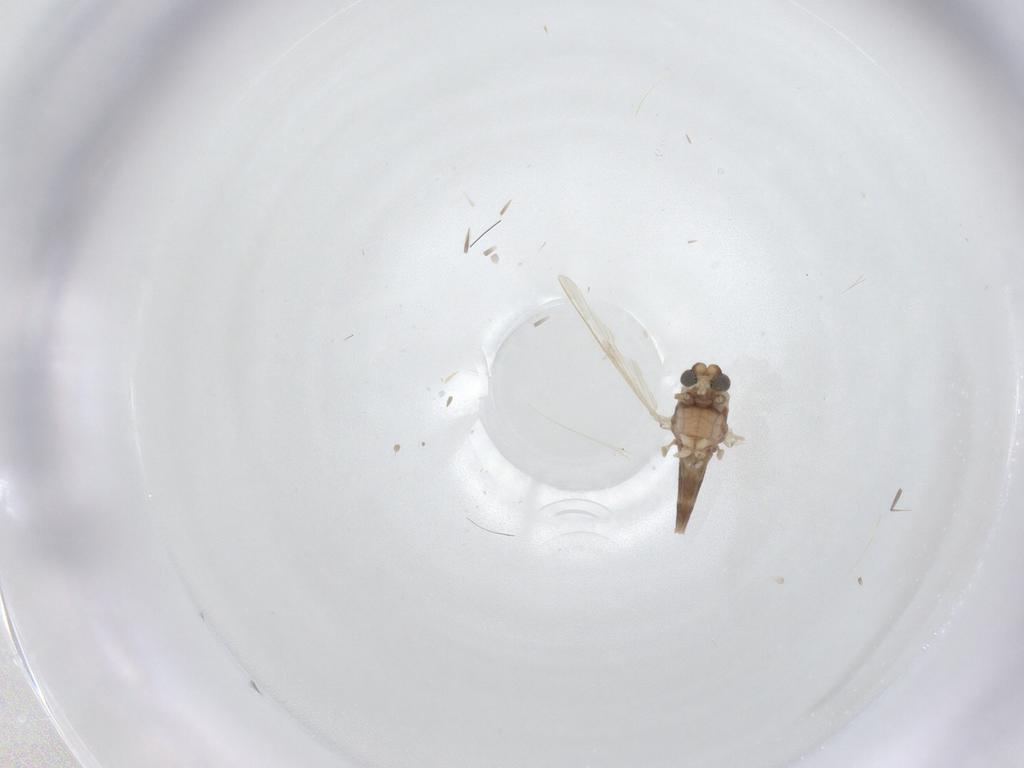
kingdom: Animalia
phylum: Arthropoda
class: Insecta
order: Diptera
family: Chironomidae
